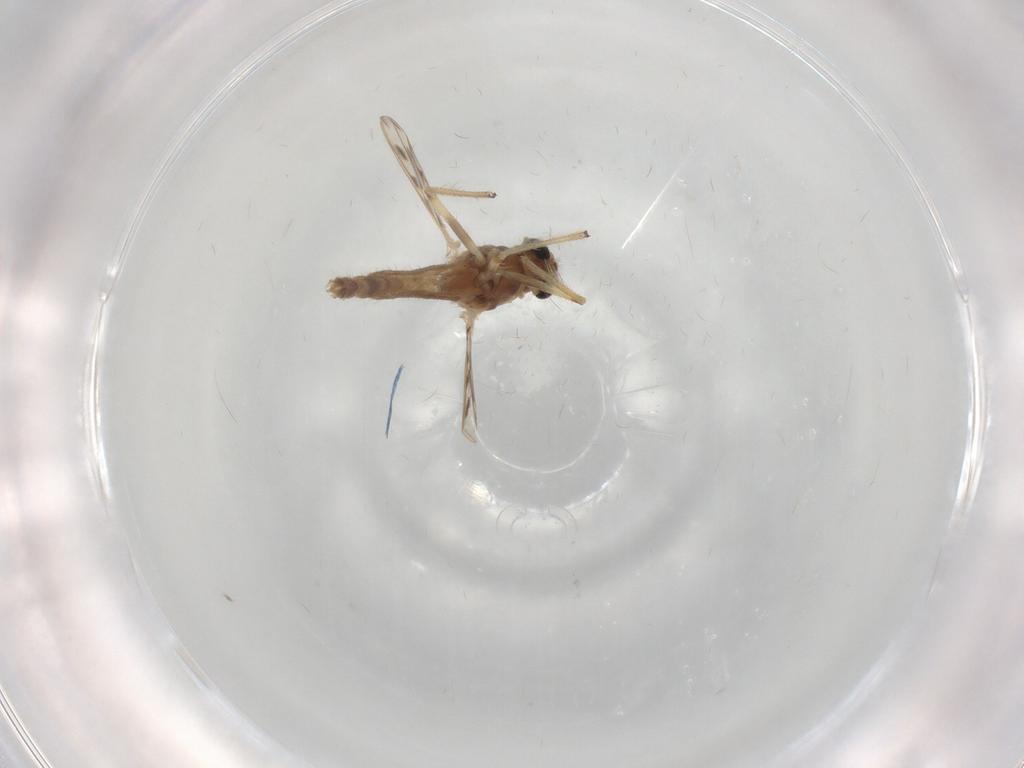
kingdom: Animalia
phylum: Arthropoda
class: Insecta
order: Diptera
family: Chironomidae
